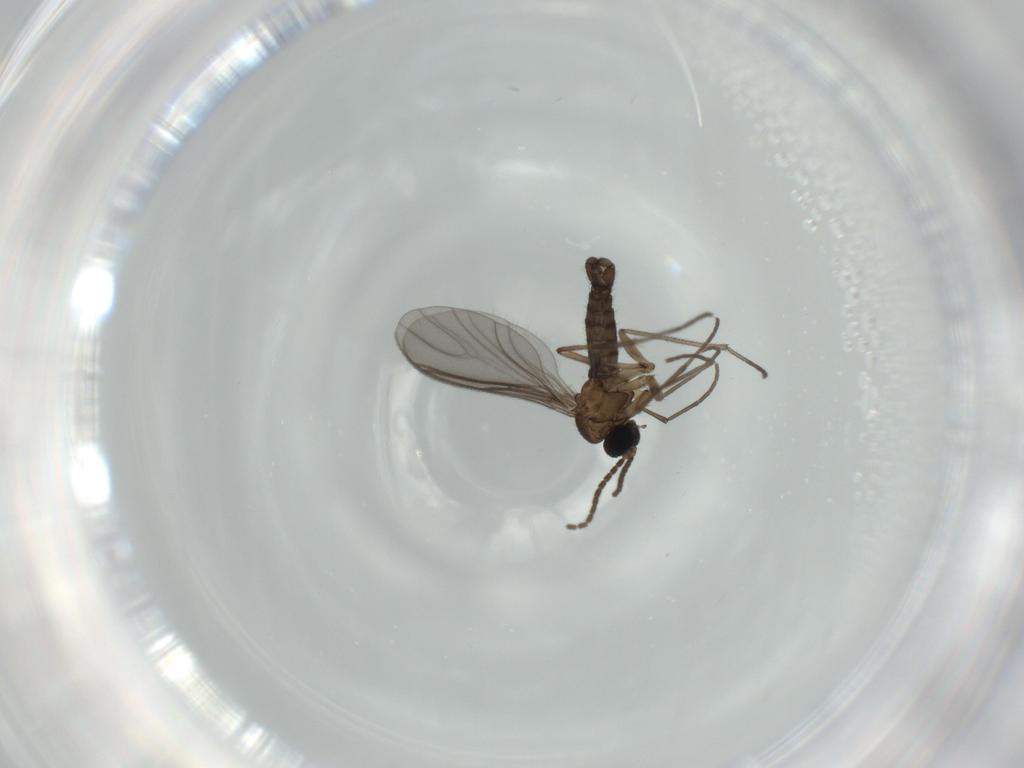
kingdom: Animalia
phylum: Arthropoda
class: Insecta
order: Diptera
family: Sciaridae
